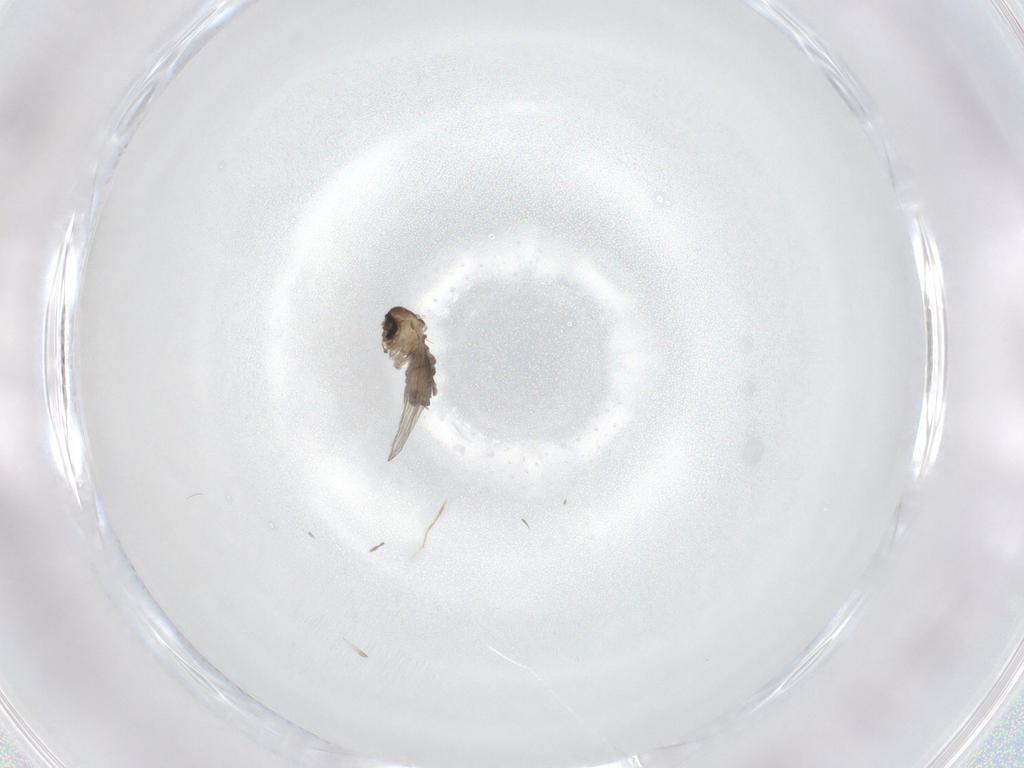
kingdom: Animalia
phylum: Arthropoda
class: Insecta
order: Diptera
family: Psychodidae
